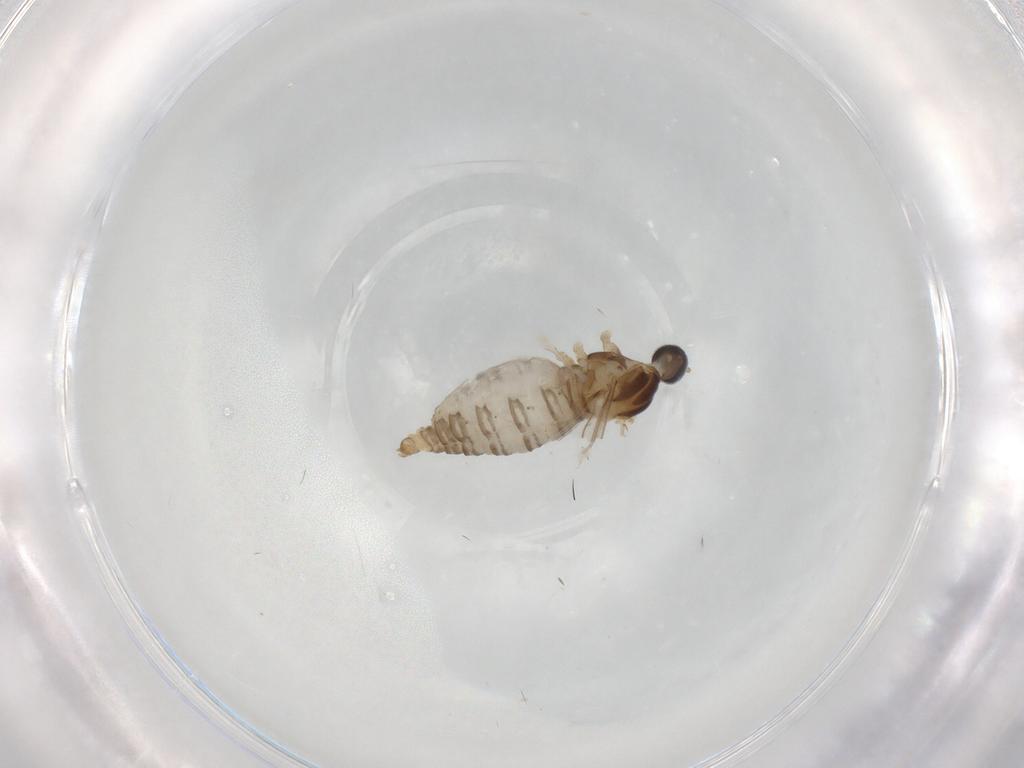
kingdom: Animalia
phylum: Arthropoda
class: Insecta
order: Diptera
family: Cecidomyiidae
